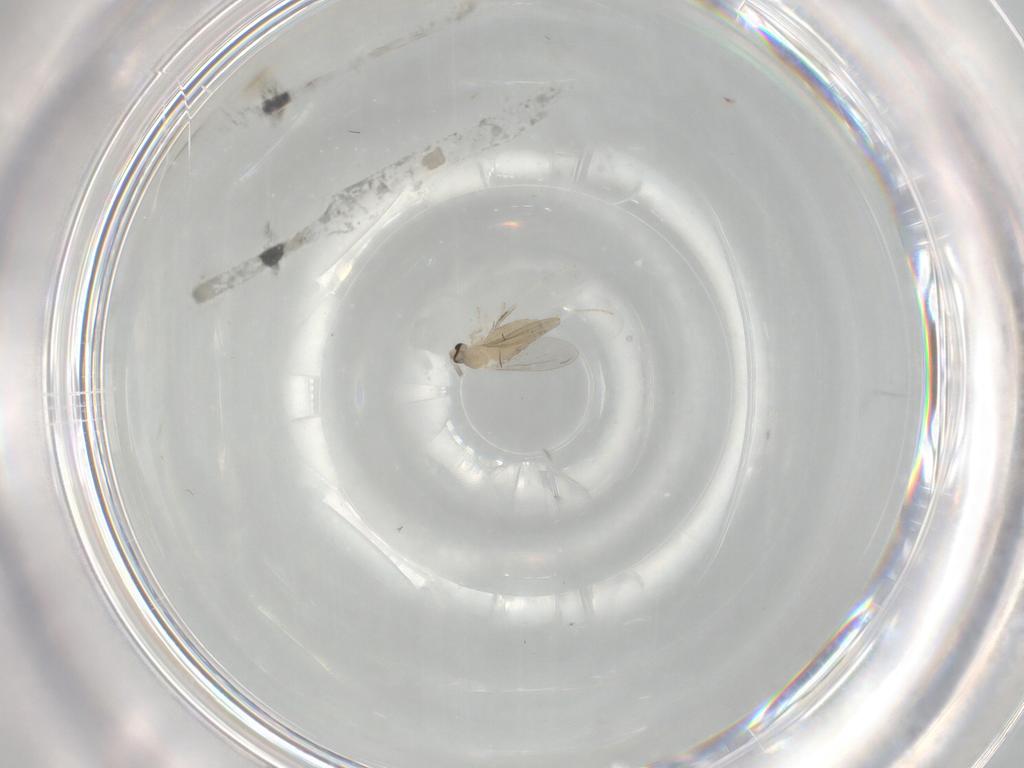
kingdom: Animalia
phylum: Arthropoda
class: Insecta
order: Diptera
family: Cecidomyiidae
